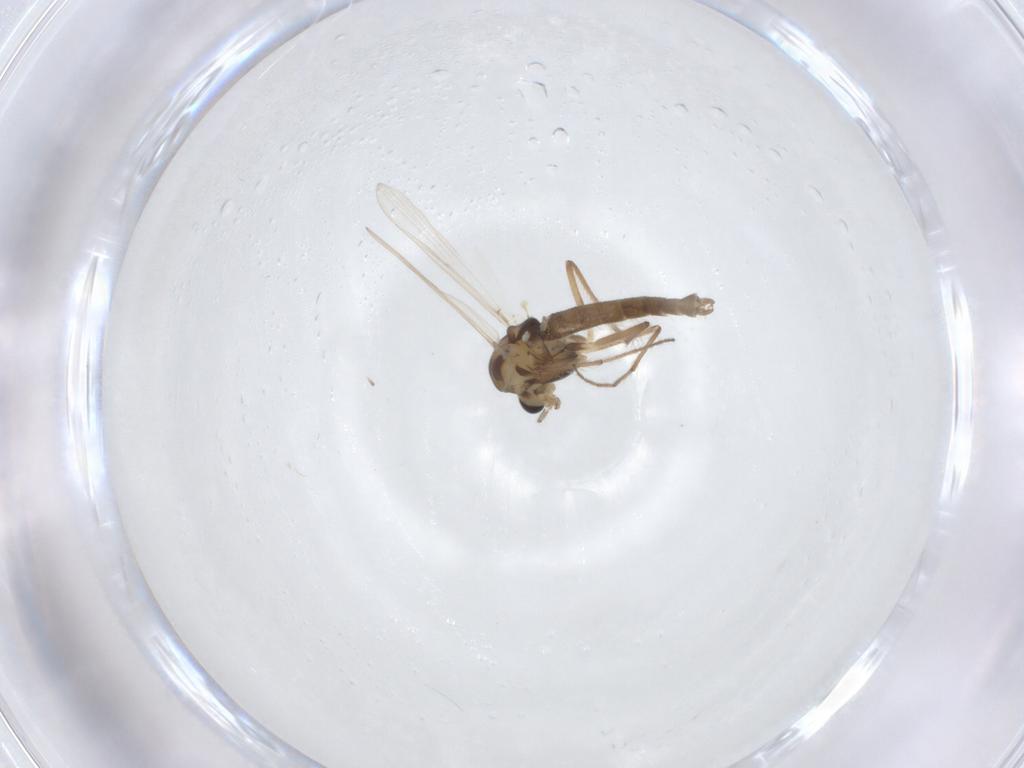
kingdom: Animalia
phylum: Arthropoda
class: Insecta
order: Diptera
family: Chironomidae
